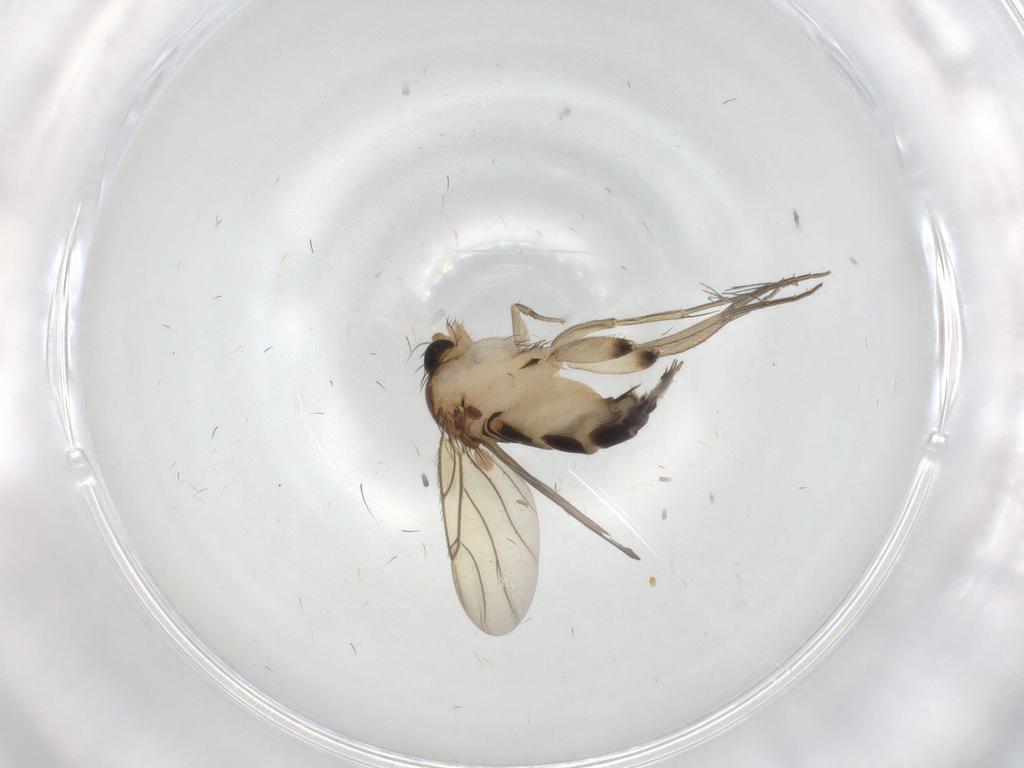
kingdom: Animalia
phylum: Arthropoda
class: Insecta
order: Diptera
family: Phoridae
